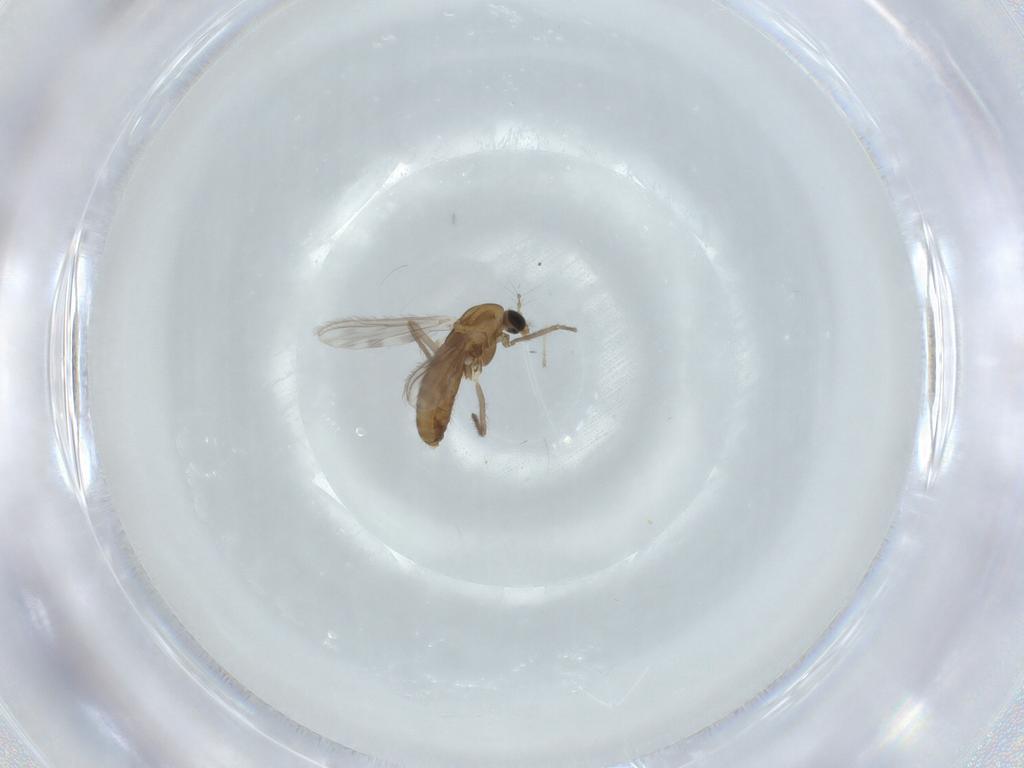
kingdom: Animalia
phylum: Arthropoda
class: Insecta
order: Diptera
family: Chironomidae
